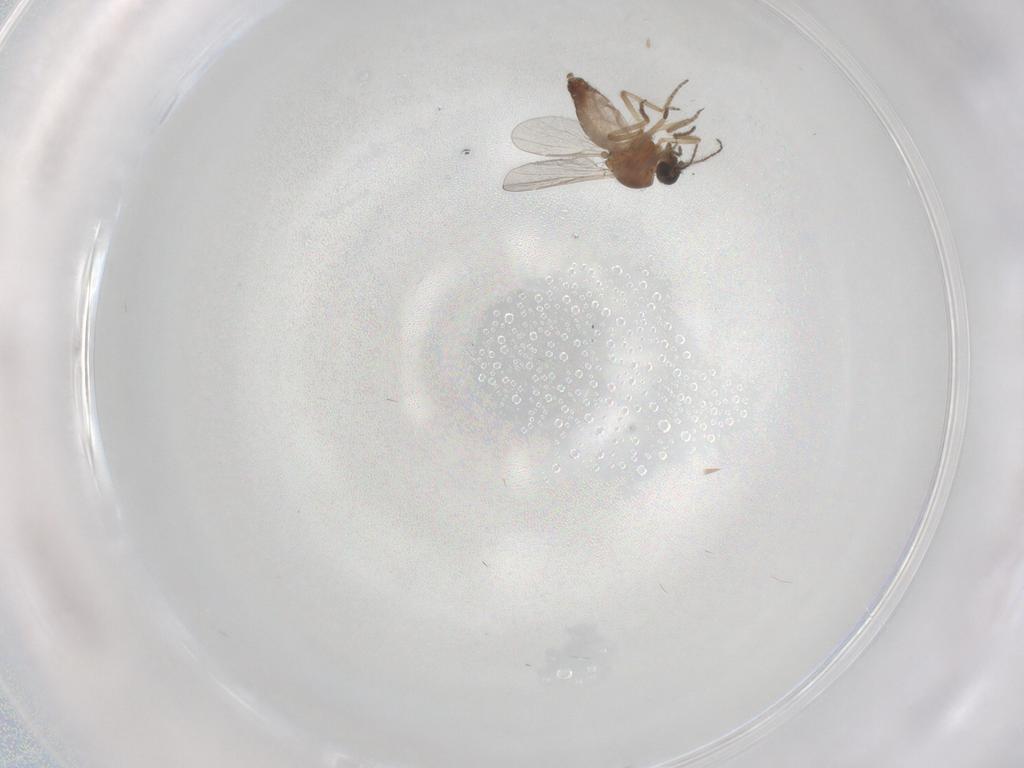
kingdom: Animalia
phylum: Arthropoda
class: Insecta
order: Diptera
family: Ceratopogonidae
